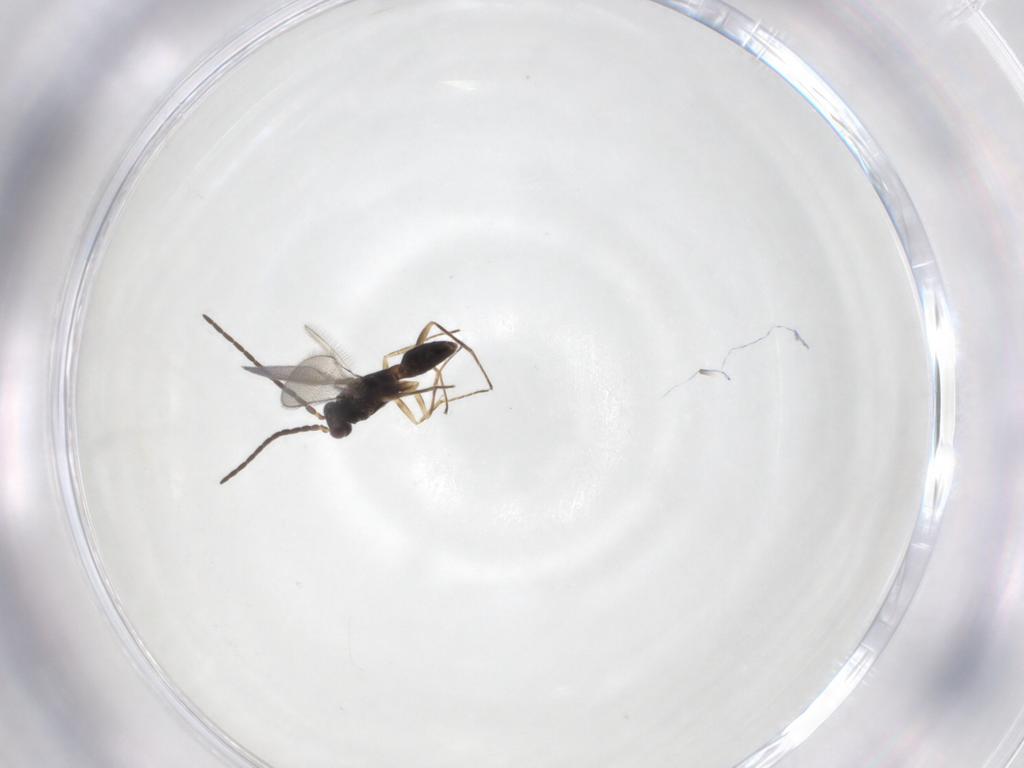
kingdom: Animalia
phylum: Arthropoda
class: Insecta
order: Hymenoptera
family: Mymaridae
